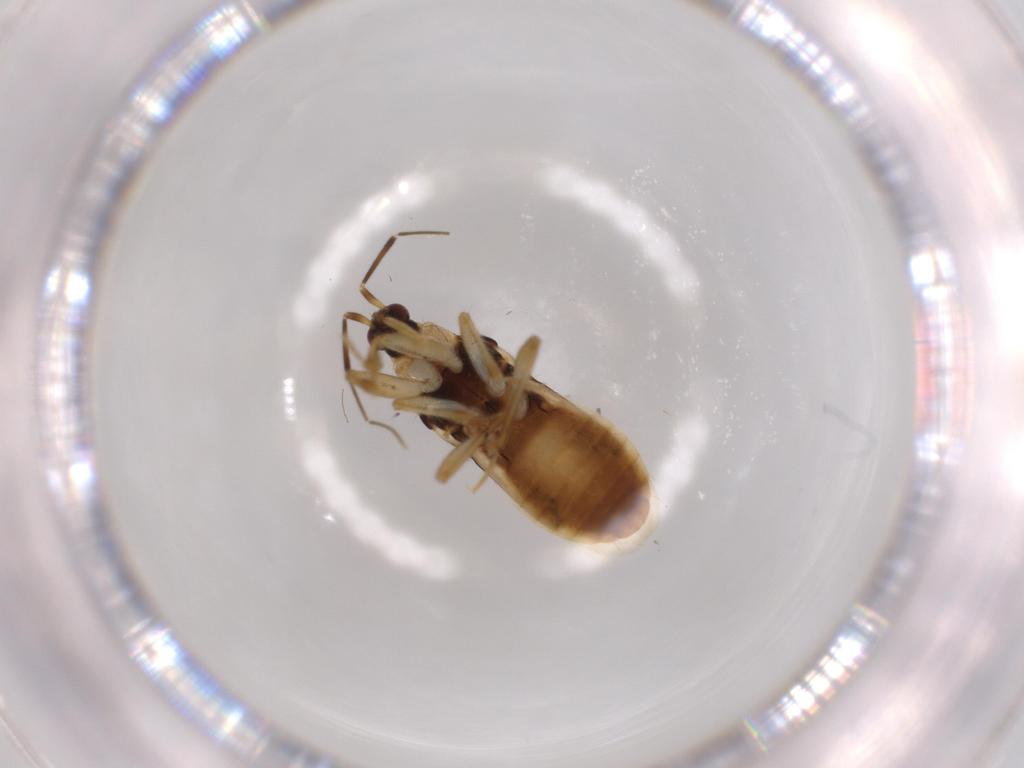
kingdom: Animalia
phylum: Arthropoda
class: Insecta
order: Hemiptera
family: Nabidae
